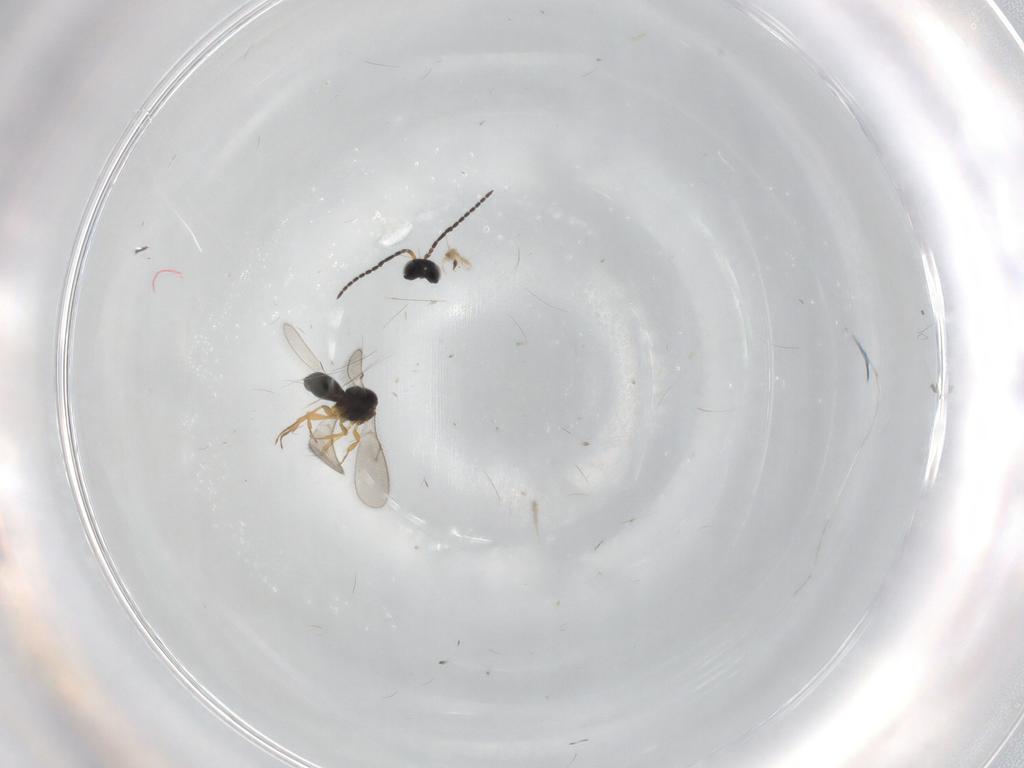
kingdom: Animalia
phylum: Arthropoda
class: Insecta
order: Hymenoptera
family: Scelionidae
